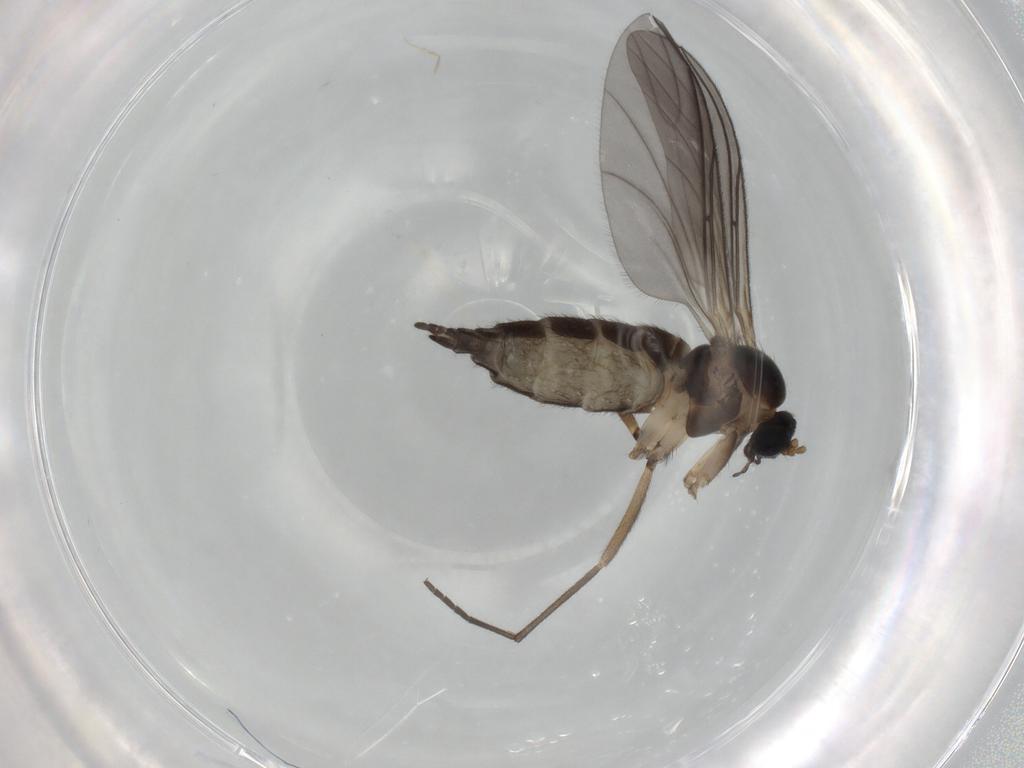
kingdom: Animalia
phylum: Arthropoda
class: Insecta
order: Diptera
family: Sciaridae
